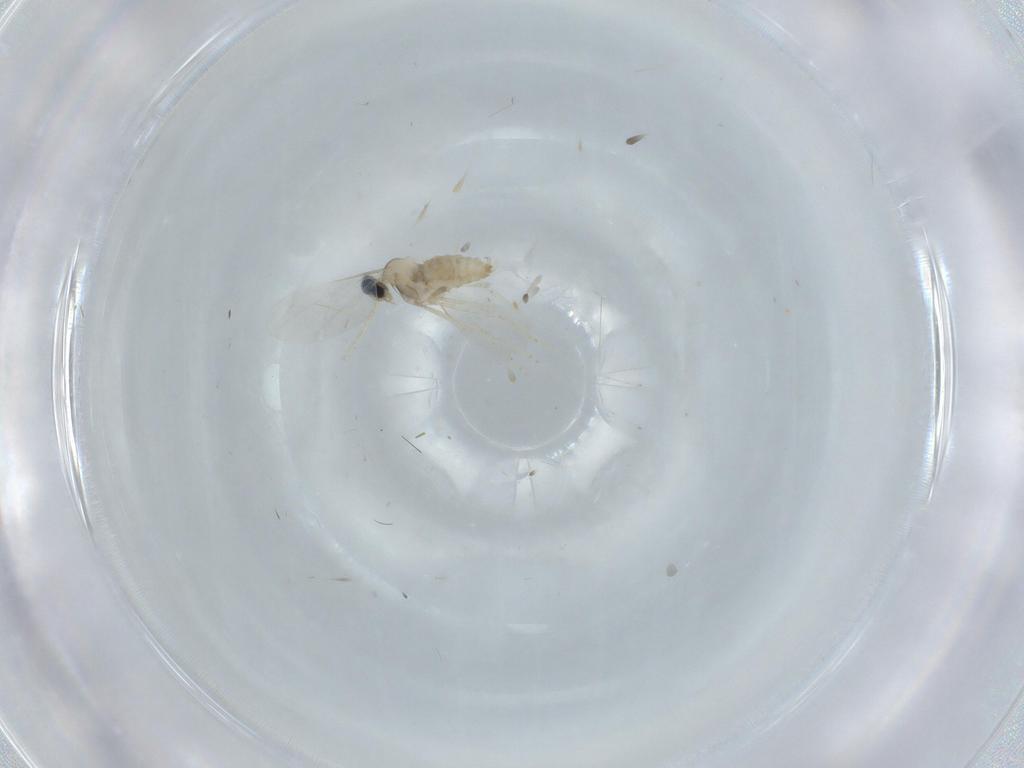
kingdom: Animalia
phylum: Arthropoda
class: Insecta
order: Diptera
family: Cecidomyiidae
